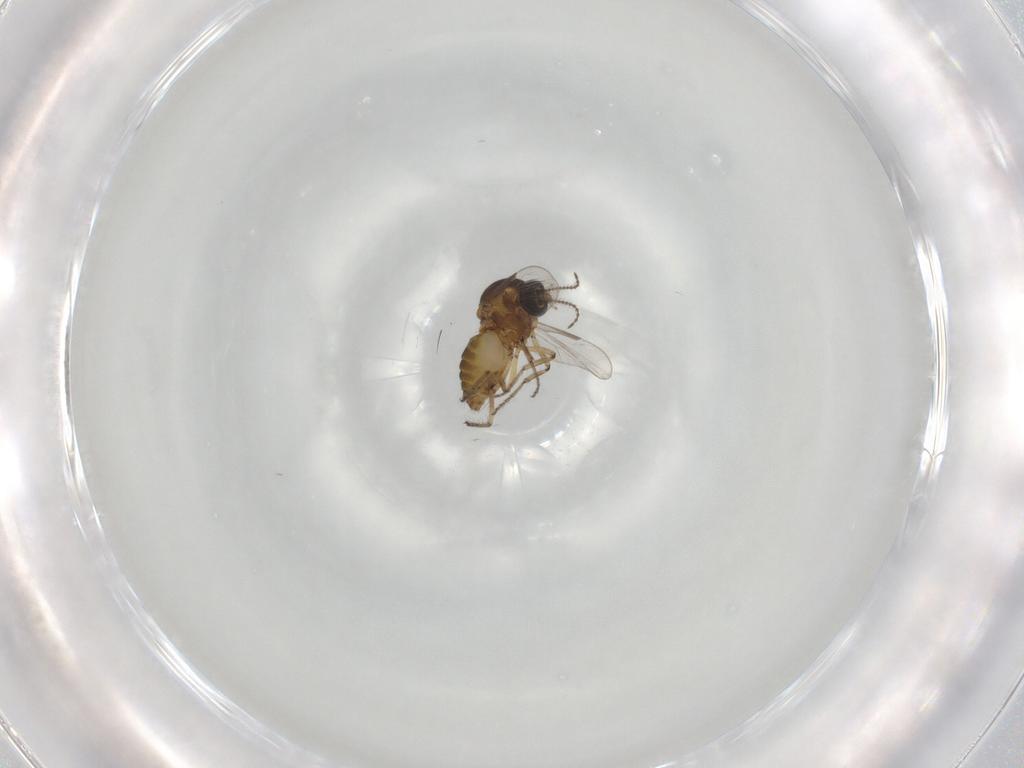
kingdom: Animalia
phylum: Arthropoda
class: Insecta
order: Diptera
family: Ceratopogonidae
